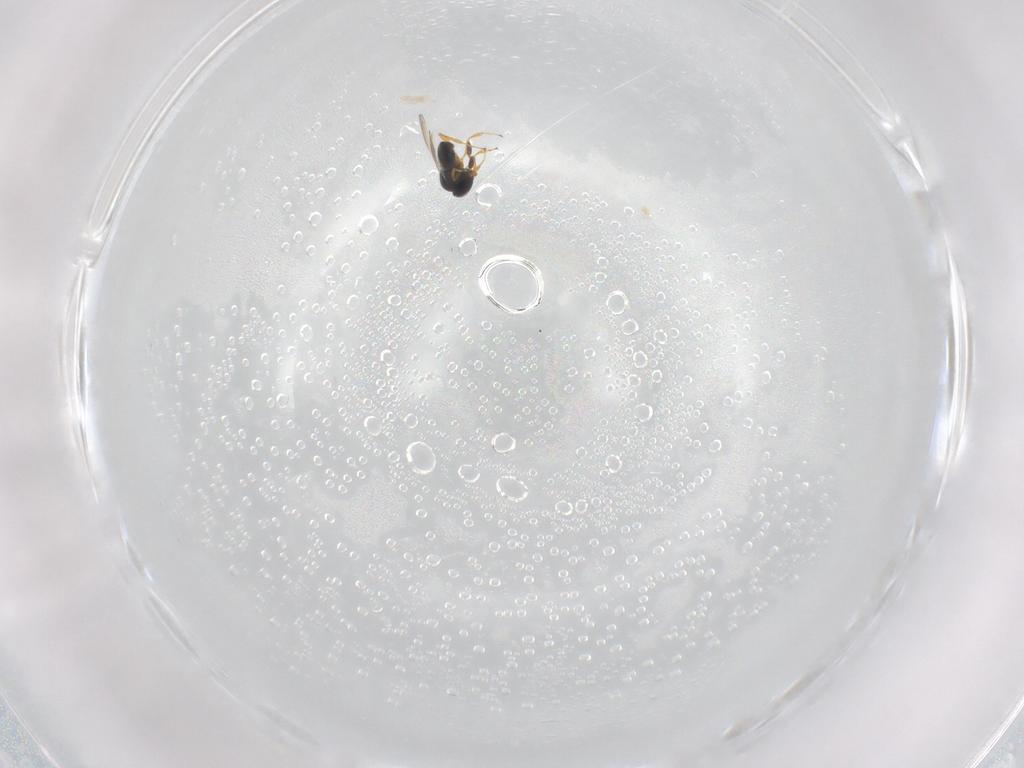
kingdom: Animalia
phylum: Arthropoda
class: Insecta
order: Hymenoptera
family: Platygastridae
